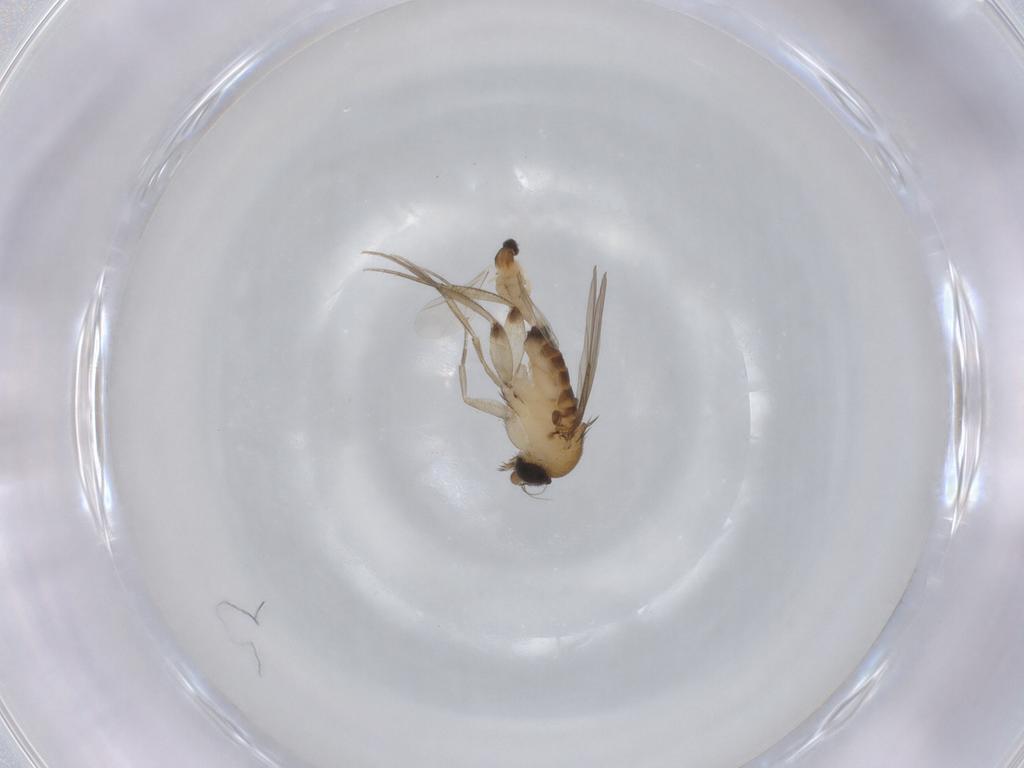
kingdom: Animalia
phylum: Arthropoda
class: Insecta
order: Diptera
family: Phoridae
